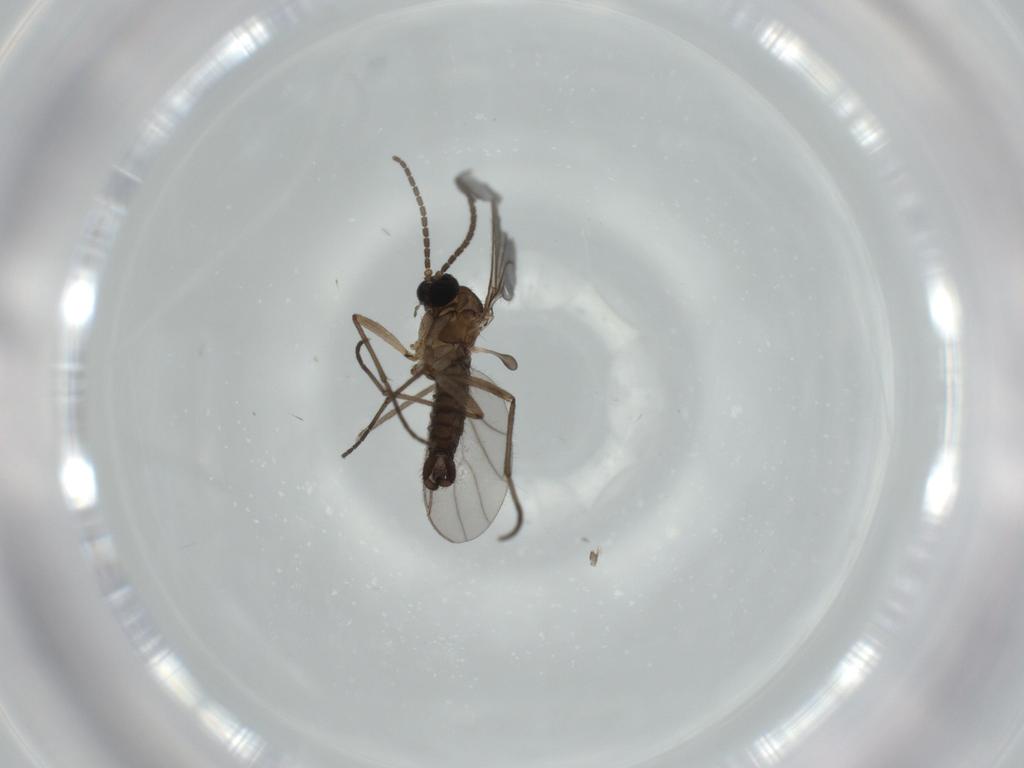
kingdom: Animalia
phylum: Arthropoda
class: Insecta
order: Diptera
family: Sciaridae
